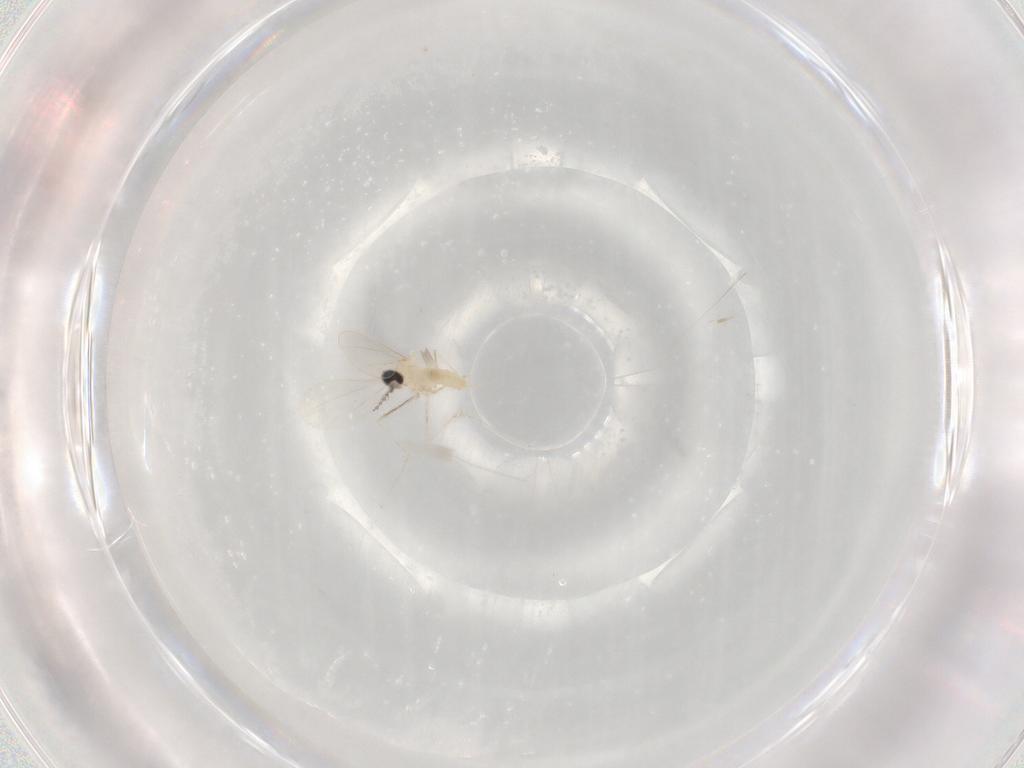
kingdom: Animalia
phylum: Arthropoda
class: Insecta
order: Diptera
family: Cecidomyiidae
